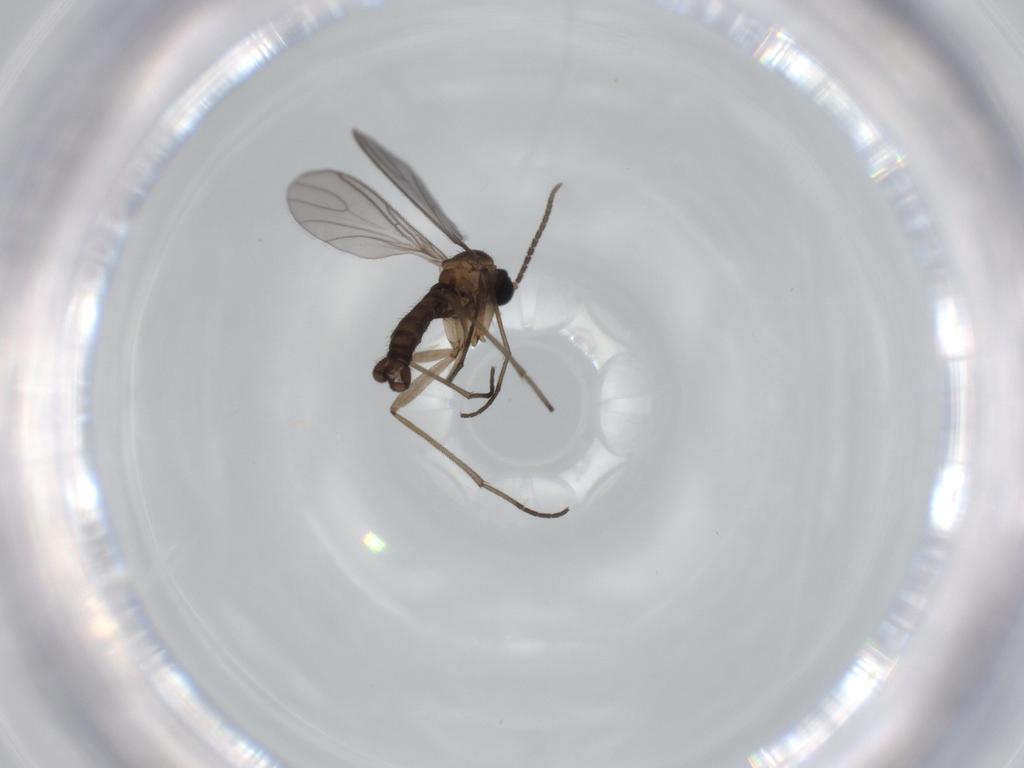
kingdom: Animalia
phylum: Arthropoda
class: Insecta
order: Diptera
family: Sciaridae
